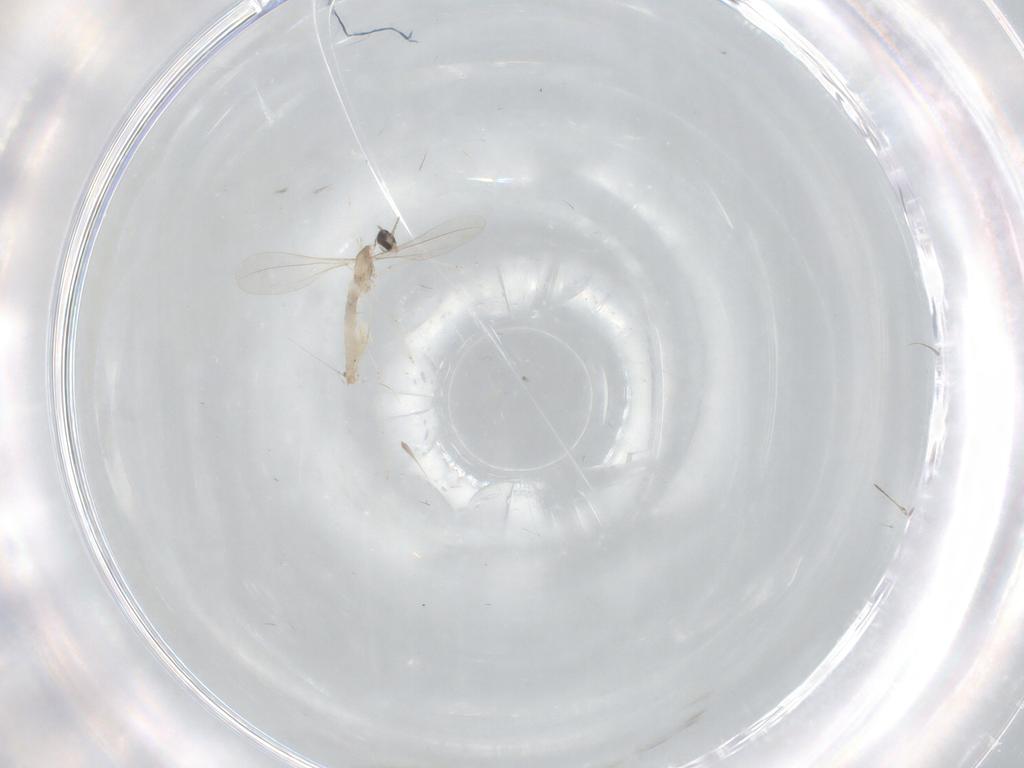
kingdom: Animalia
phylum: Arthropoda
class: Insecta
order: Diptera
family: Cecidomyiidae
